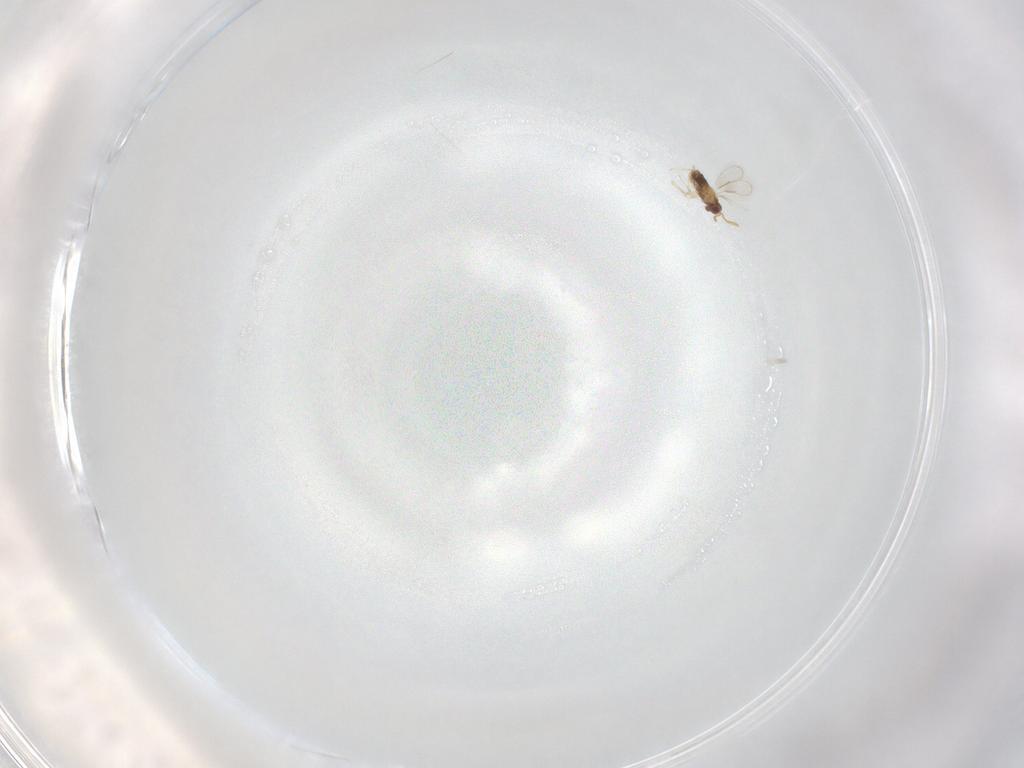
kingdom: Animalia
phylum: Arthropoda
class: Insecta
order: Hymenoptera
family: Aphelinidae
